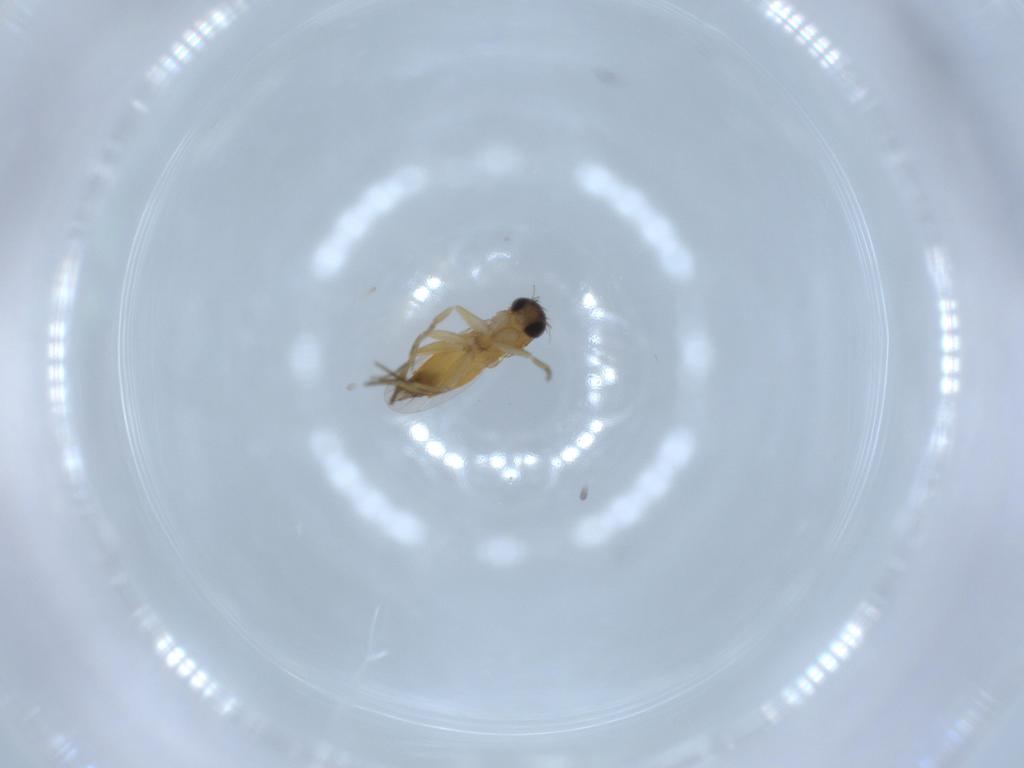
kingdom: Animalia
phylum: Arthropoda
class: Insecta
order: Diptera
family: Phoridae
